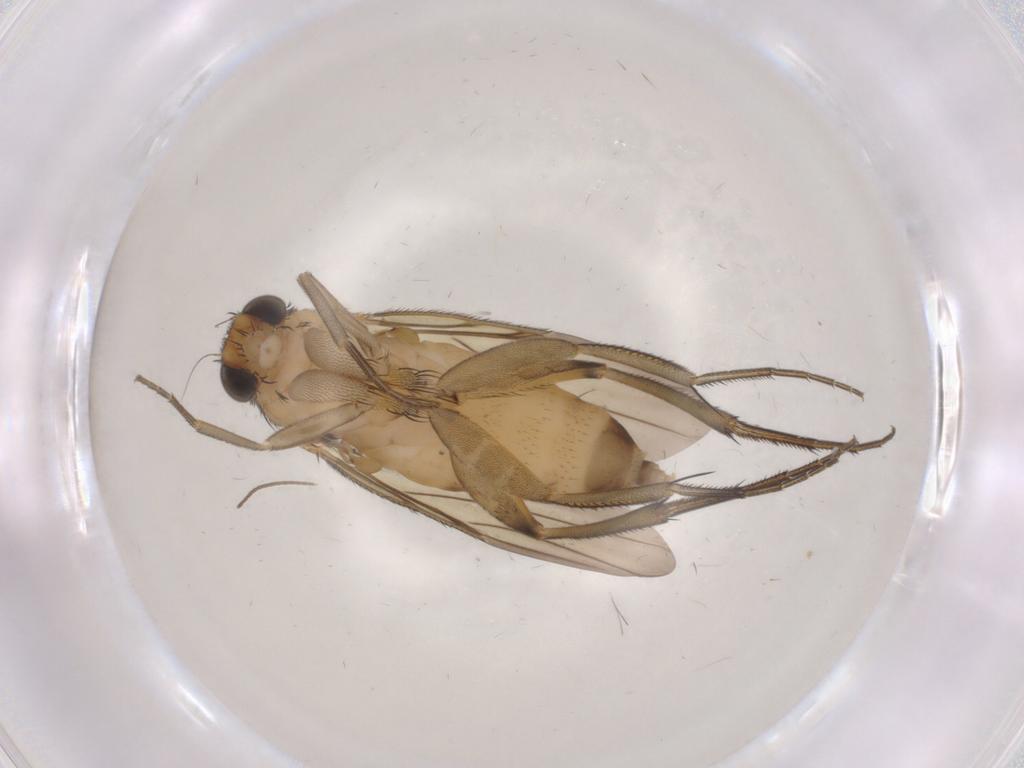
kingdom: Animalia
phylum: Arthropoda
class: Insecta
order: Diptera
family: Cecidomyiidae
